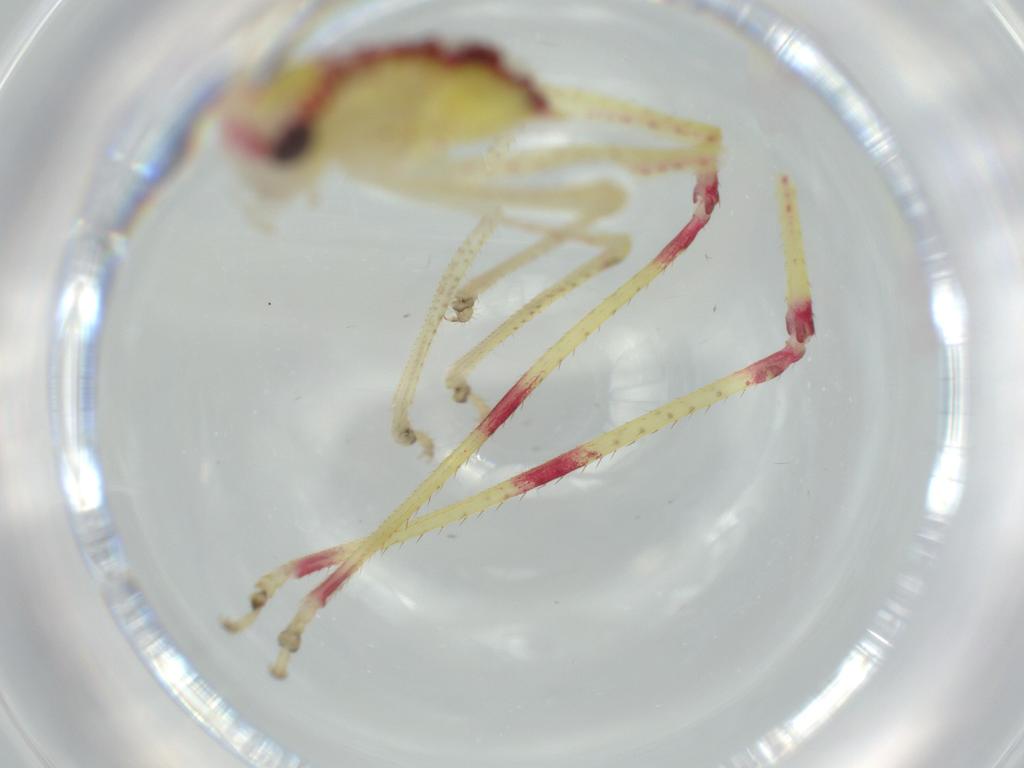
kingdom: Animalia
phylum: Arthropoda
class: Insecta
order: Orthoptera
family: Tettigoniidae
